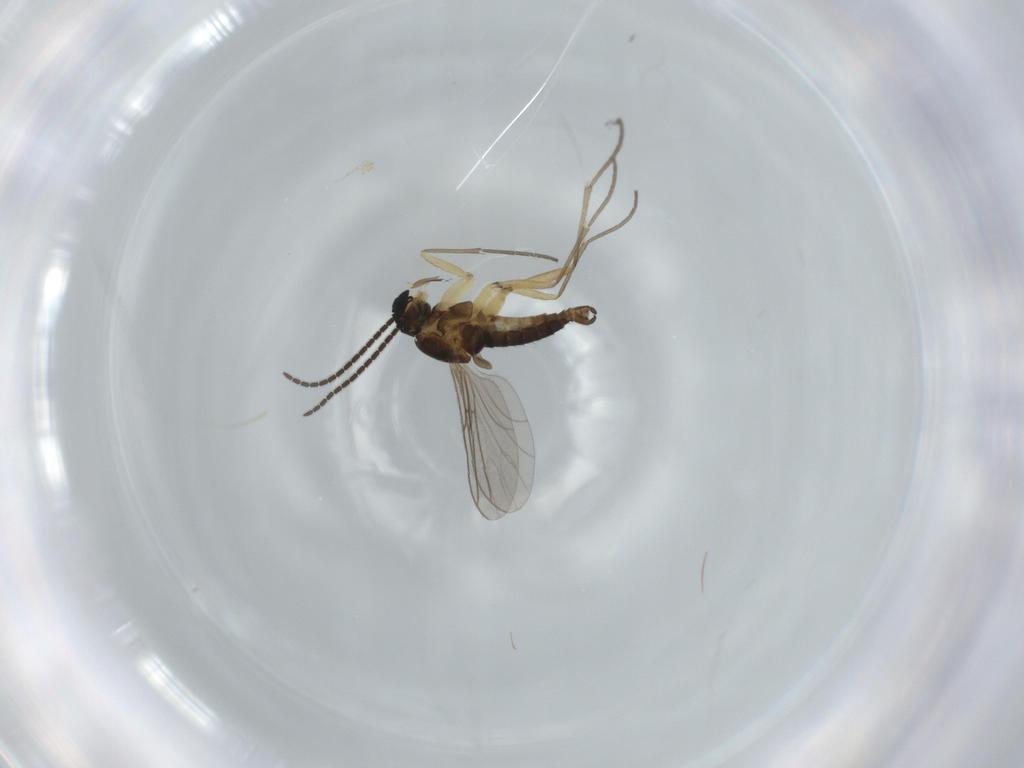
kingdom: Animalia
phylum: Arthropoda
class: Insecta
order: Diptera
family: Sciaridae
